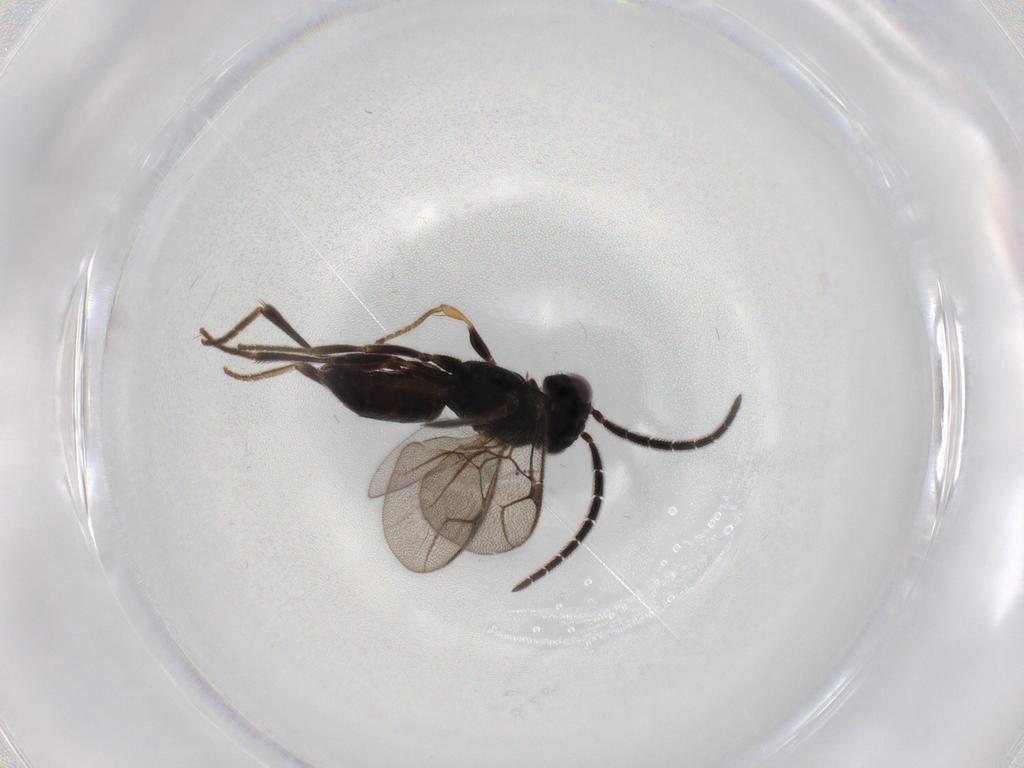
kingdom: Animalia
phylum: Arthropoda
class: Insecta
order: Hymenoptera
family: Dryinidae
